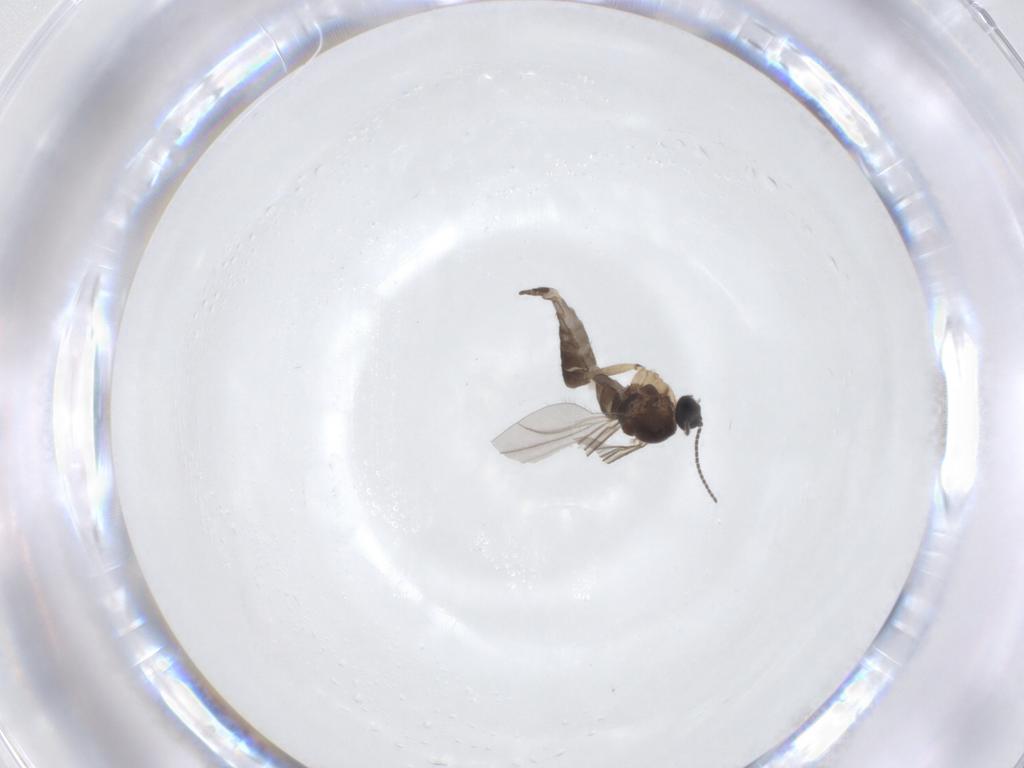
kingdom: Animalia
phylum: Arthropoda
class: Insecta
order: Diptera
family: Sciaridae
